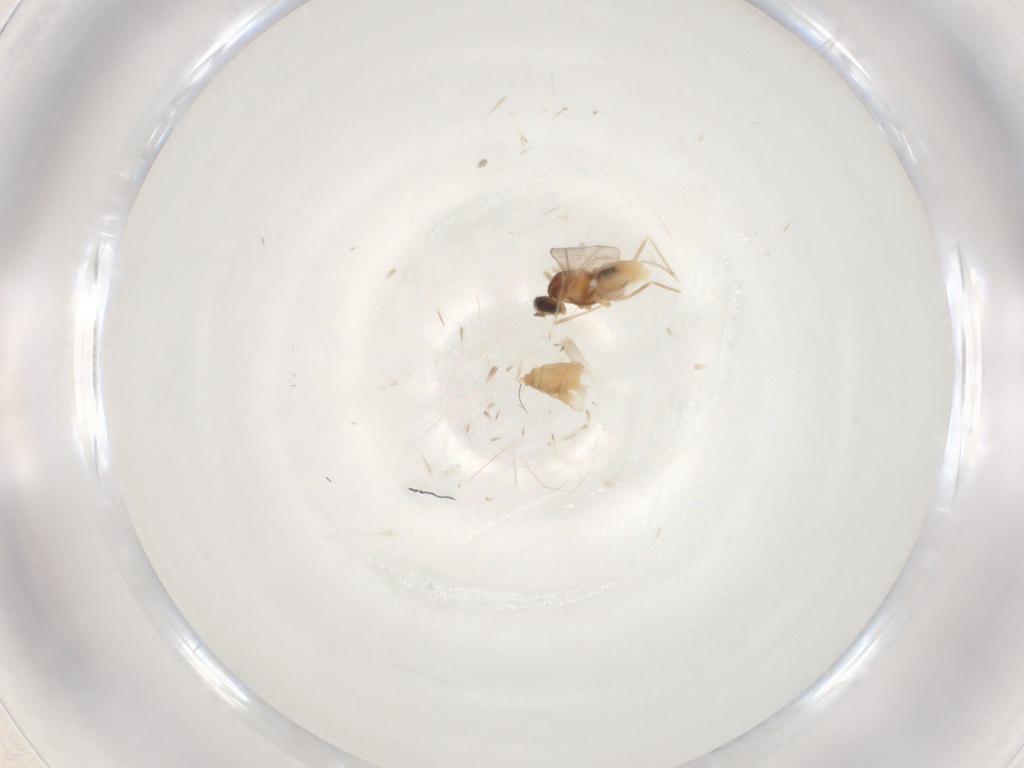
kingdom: Animalia
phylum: Arthropoda
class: Insecta
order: Diptera
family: Cecidomyiidae
